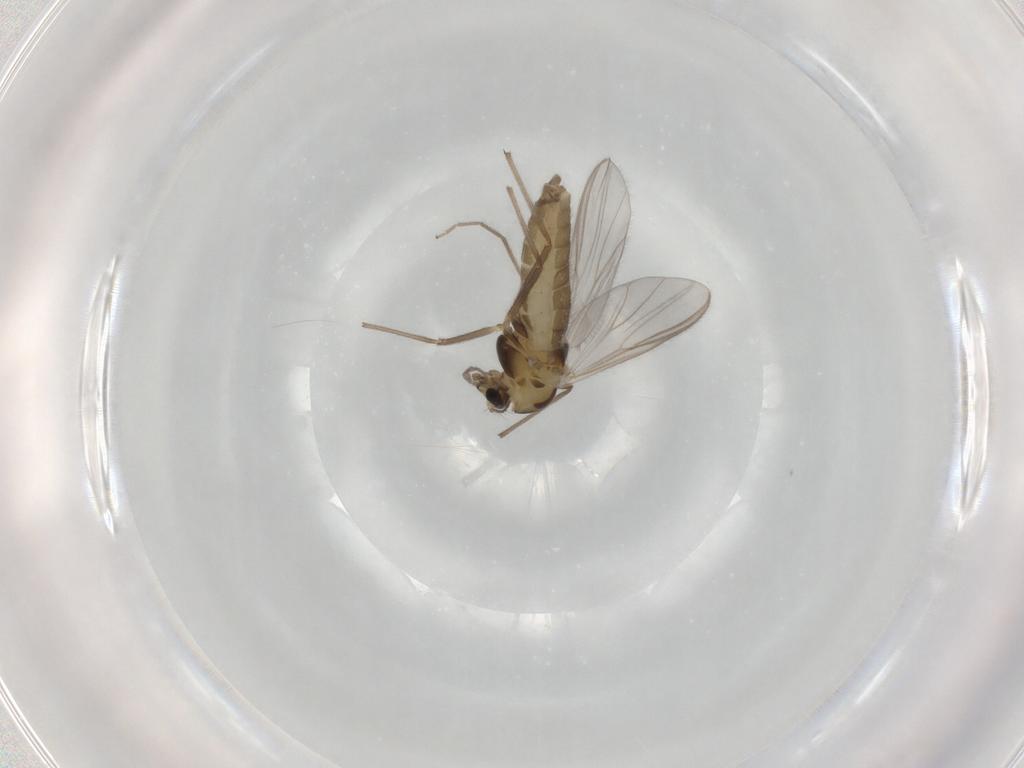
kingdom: Animalia
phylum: Arthropoda
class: Insecta
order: Diptera
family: Chironomidae
